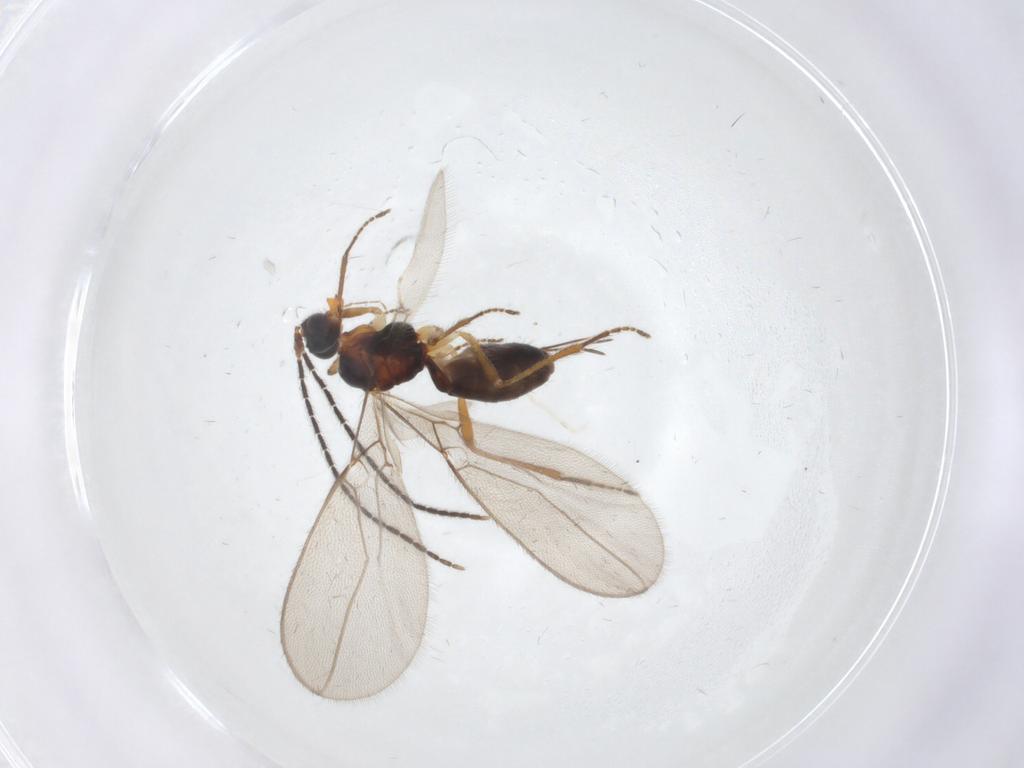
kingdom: Animalia
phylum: Arthropoda
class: Insecta
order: Hymenoptera
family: Braconidae
